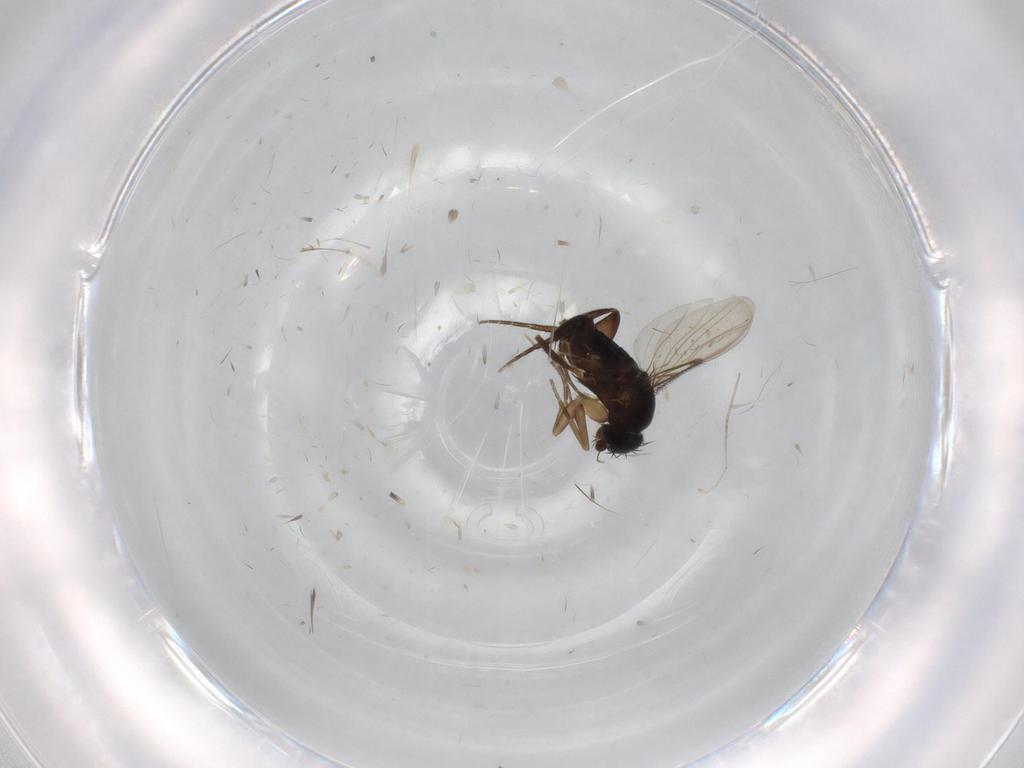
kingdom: Animalia
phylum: Arthropoda
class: Insecta
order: Diptera
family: Phoridae
